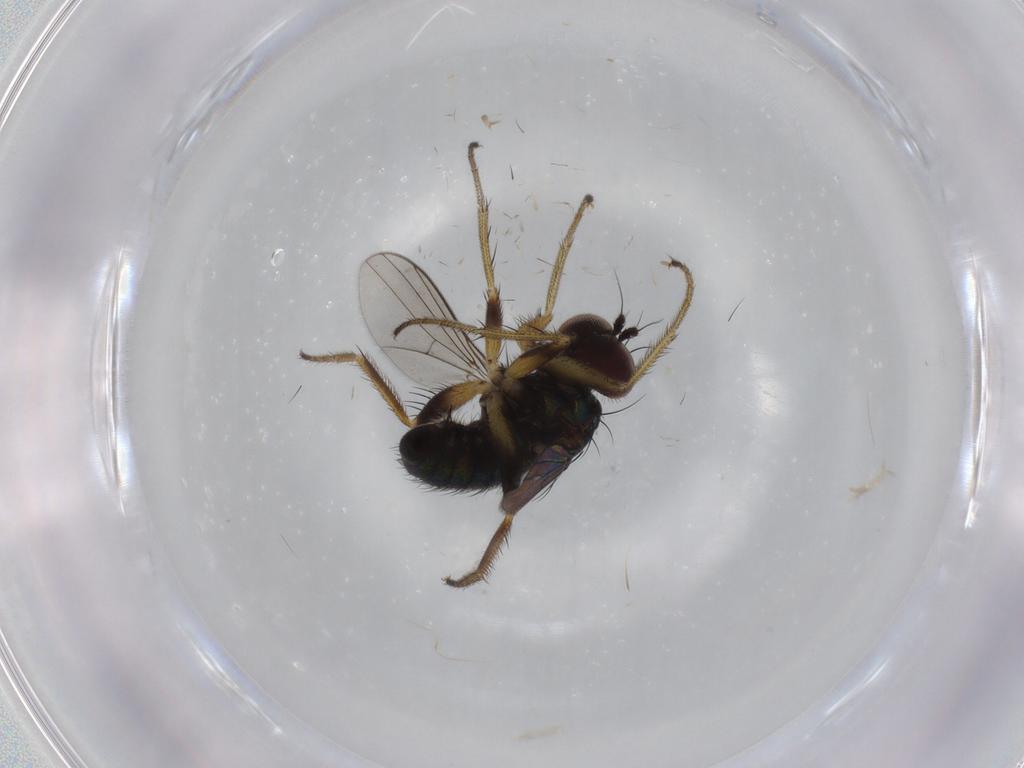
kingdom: Animalia
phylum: Arthropoda
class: Insecta
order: Diptera
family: Dolichopodidae
